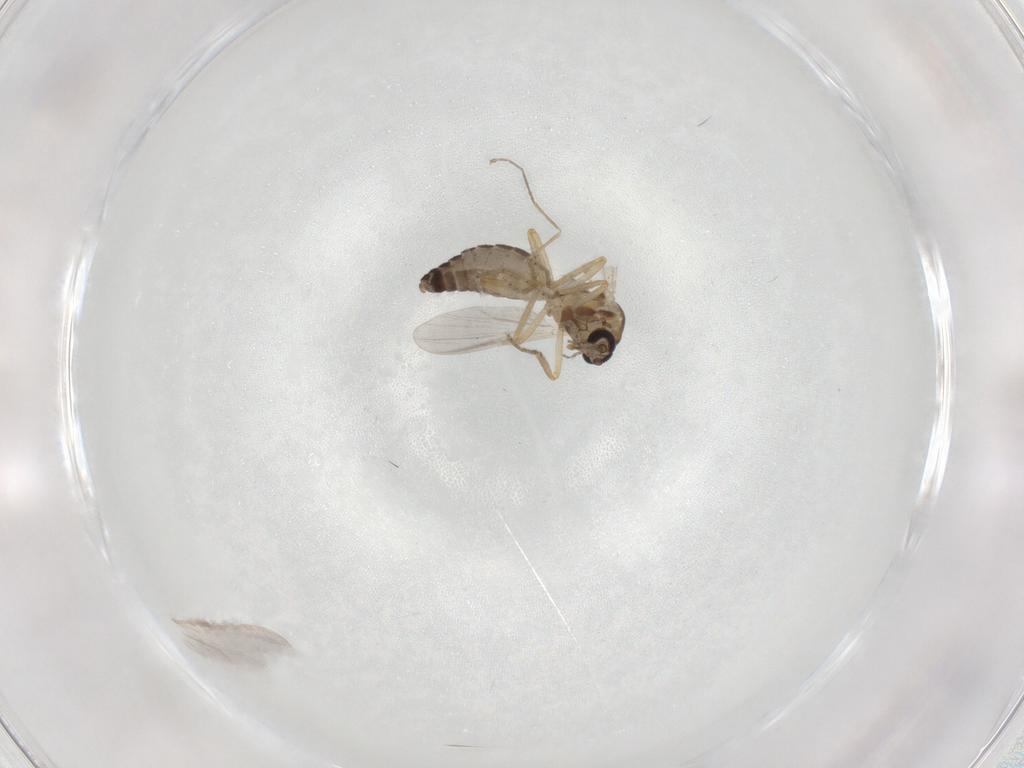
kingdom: Animalia
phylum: Arthropoda
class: Insecta
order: Diptera
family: Ceratopogonidae
